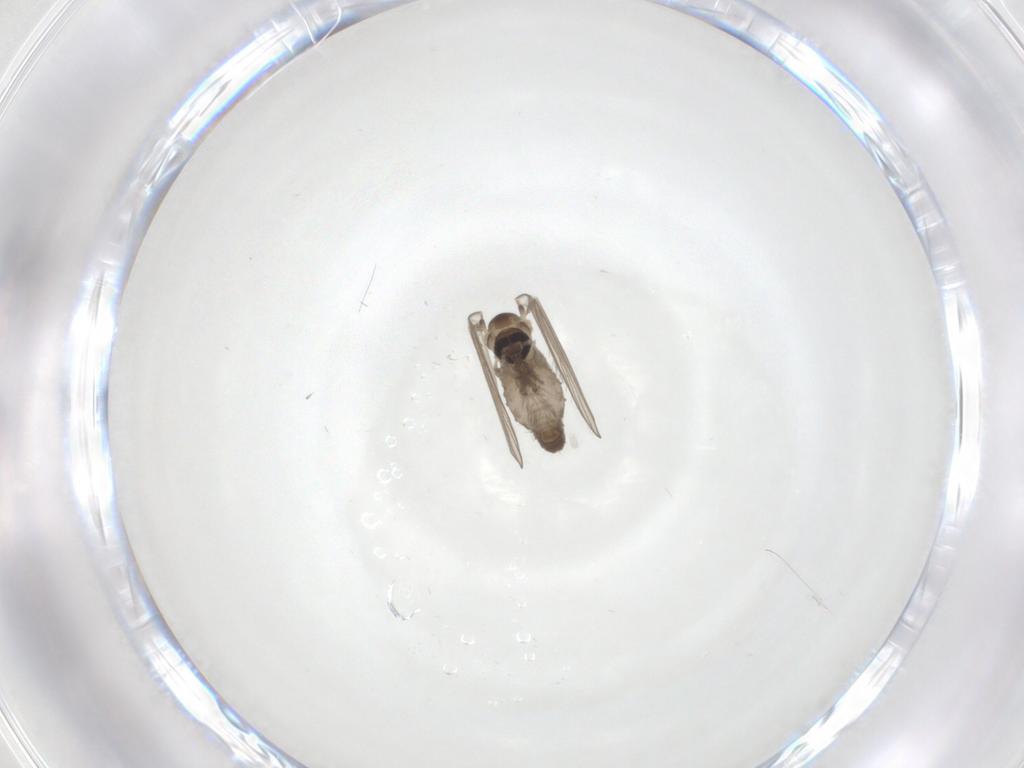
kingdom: Animalia
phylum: Arthropoda
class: Insecta
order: Diptera
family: Psychodidae
